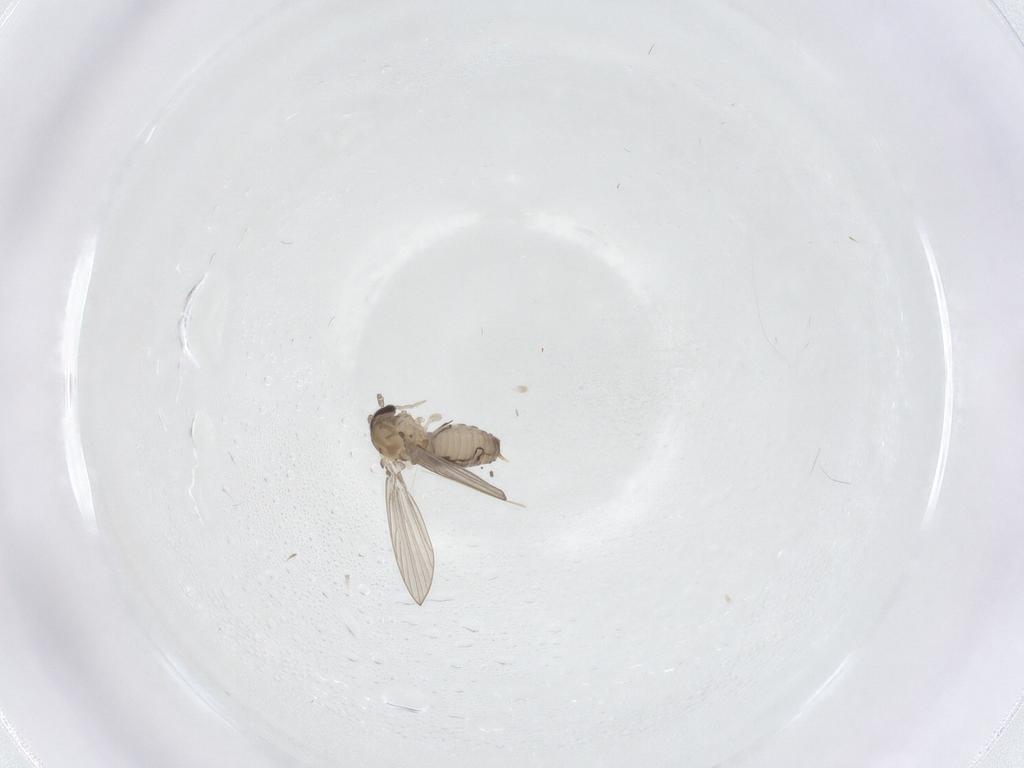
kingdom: Animalia
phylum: Arthropoda
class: Insecta
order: Diptera
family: Psychodidae
